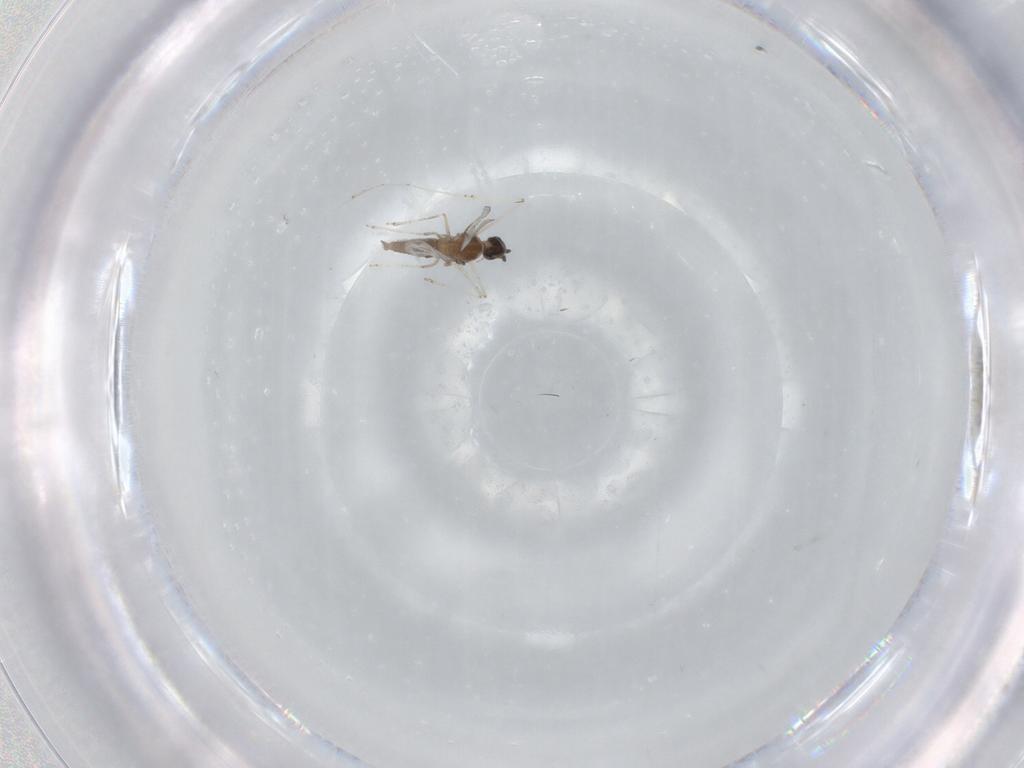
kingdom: Animalia
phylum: Arthropoda
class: Insecta
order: Diptera
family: Cecidomyiidae
